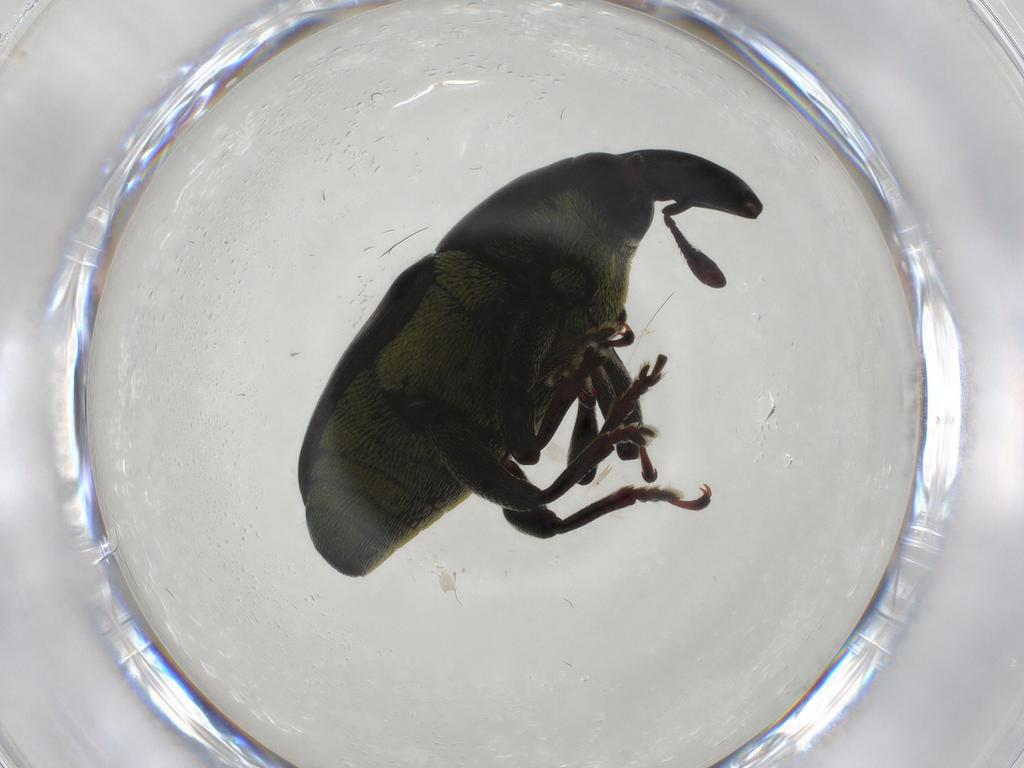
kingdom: Animalia
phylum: Arthropoda
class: Insecta
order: Coleoptera
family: Curculionidae
